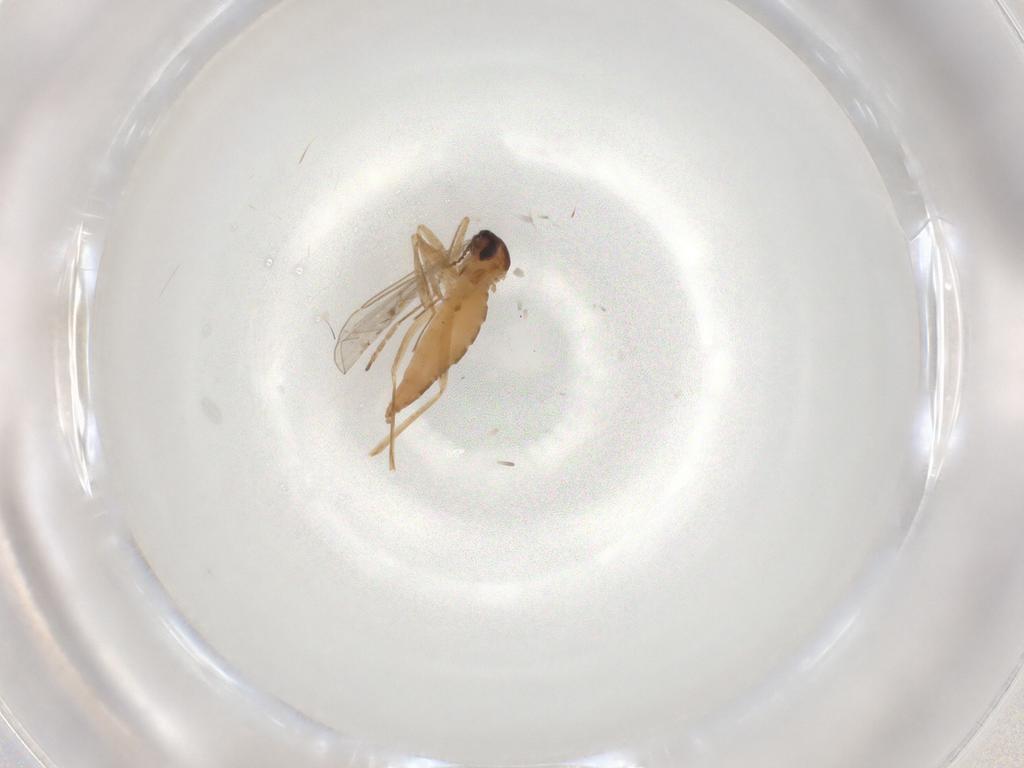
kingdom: Animalia
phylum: Arthropoda
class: Insecta
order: Diptera
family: Cecidomyiidae
